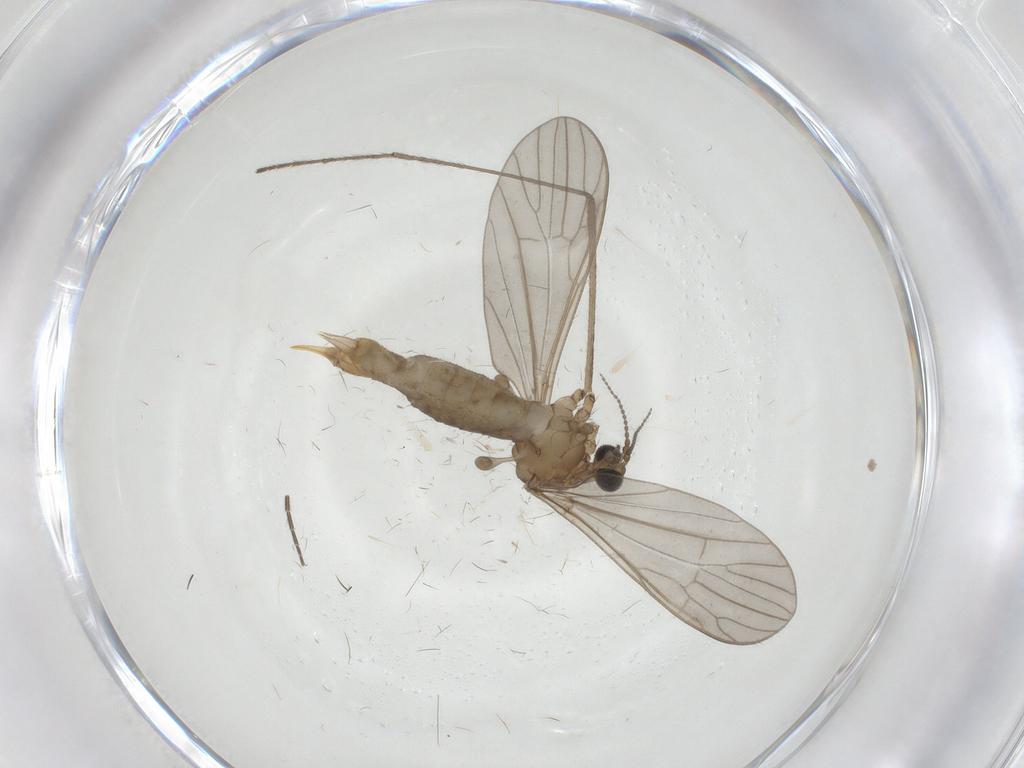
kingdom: Animalia
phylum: Arthropoda
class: Insecta
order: Diptera
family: Limoniidae
